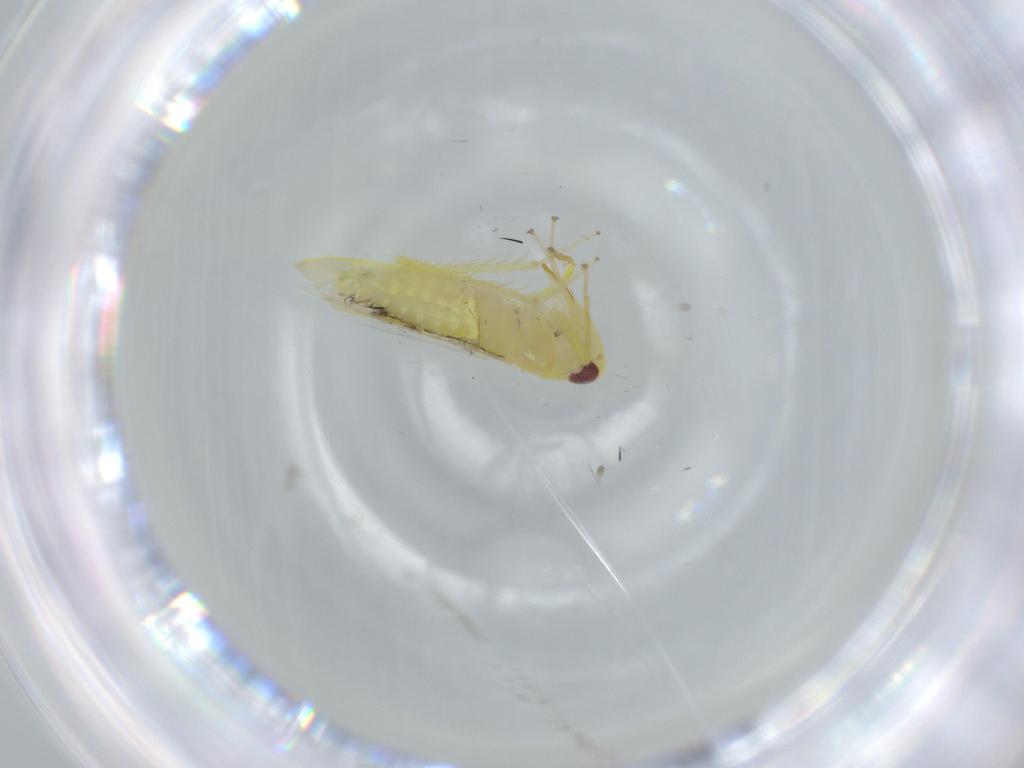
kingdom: Animalia
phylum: Arthropoda
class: Insecta
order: Hemiptera
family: Cicadellidae
